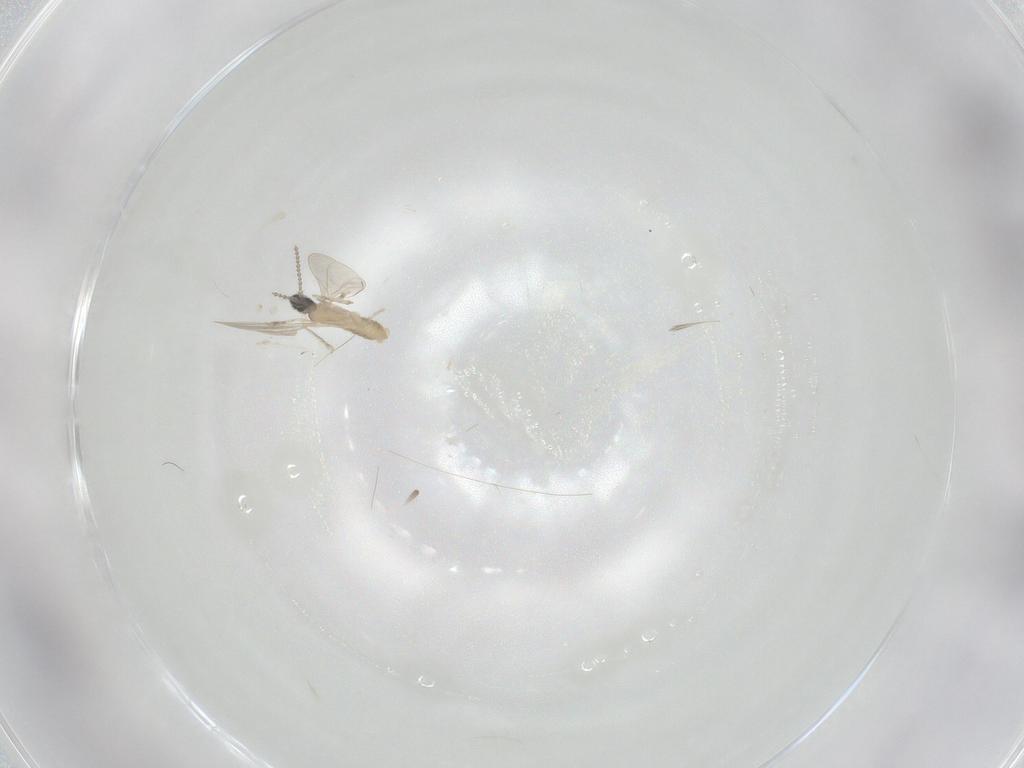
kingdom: Animalia
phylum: Arthropoda
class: Insecta
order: Diptera
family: Cecidomyiidae
